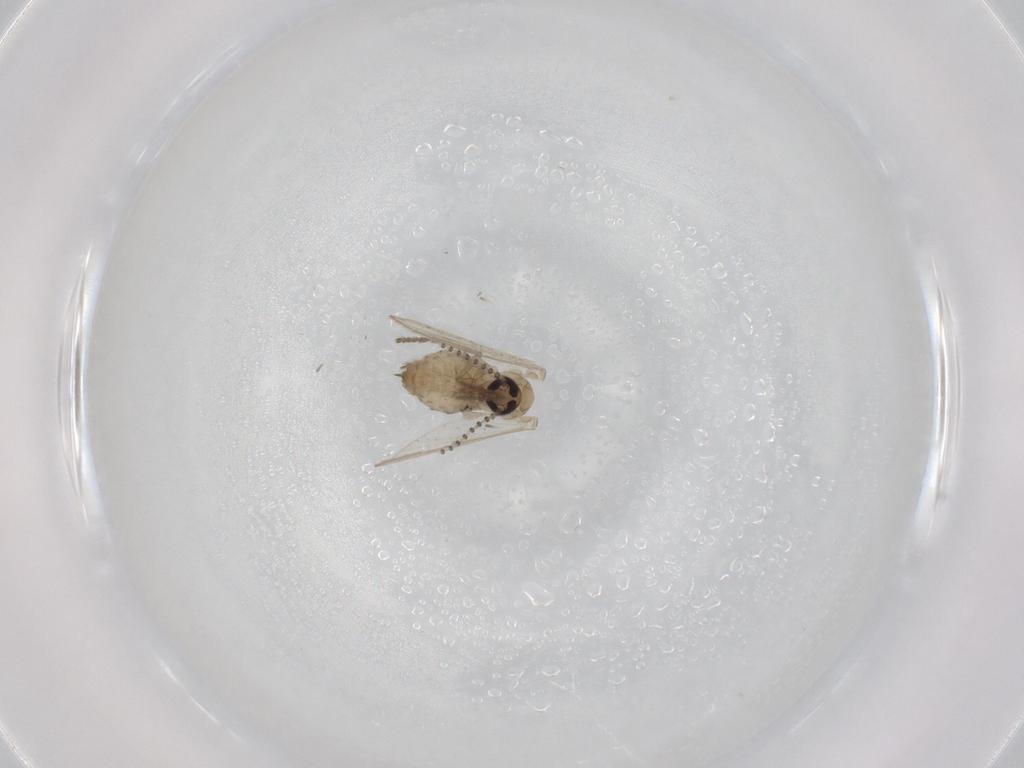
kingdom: Animalia
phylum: Arthropoda
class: Insecta
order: Diptera
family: Psychodidae
